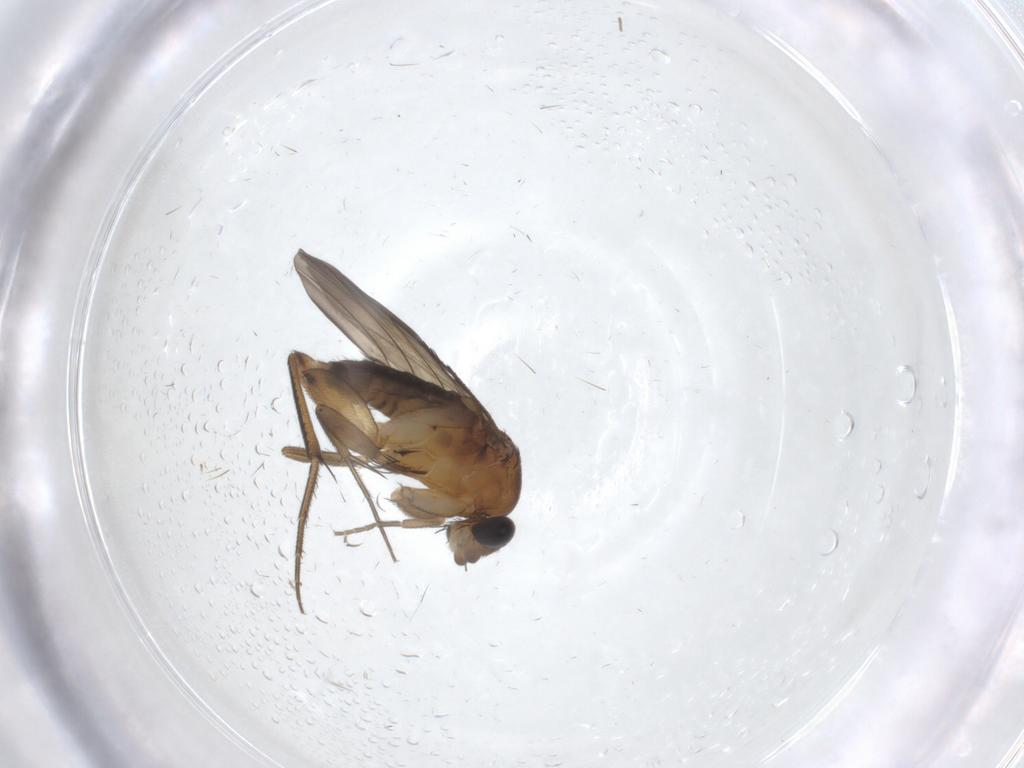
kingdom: Animalia
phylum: Arthropoda
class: Insecta
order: Diptera
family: Phoridae
